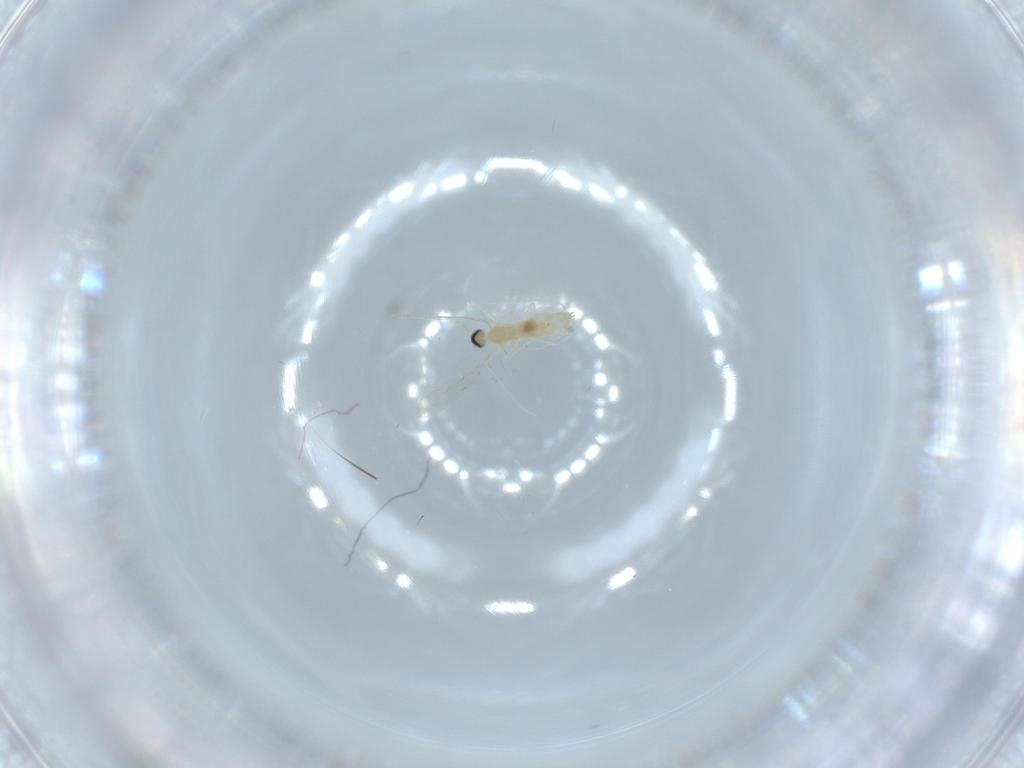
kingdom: Animalia
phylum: Arthropoda
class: Insecta
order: Diptera
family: Cecidomyiidae
